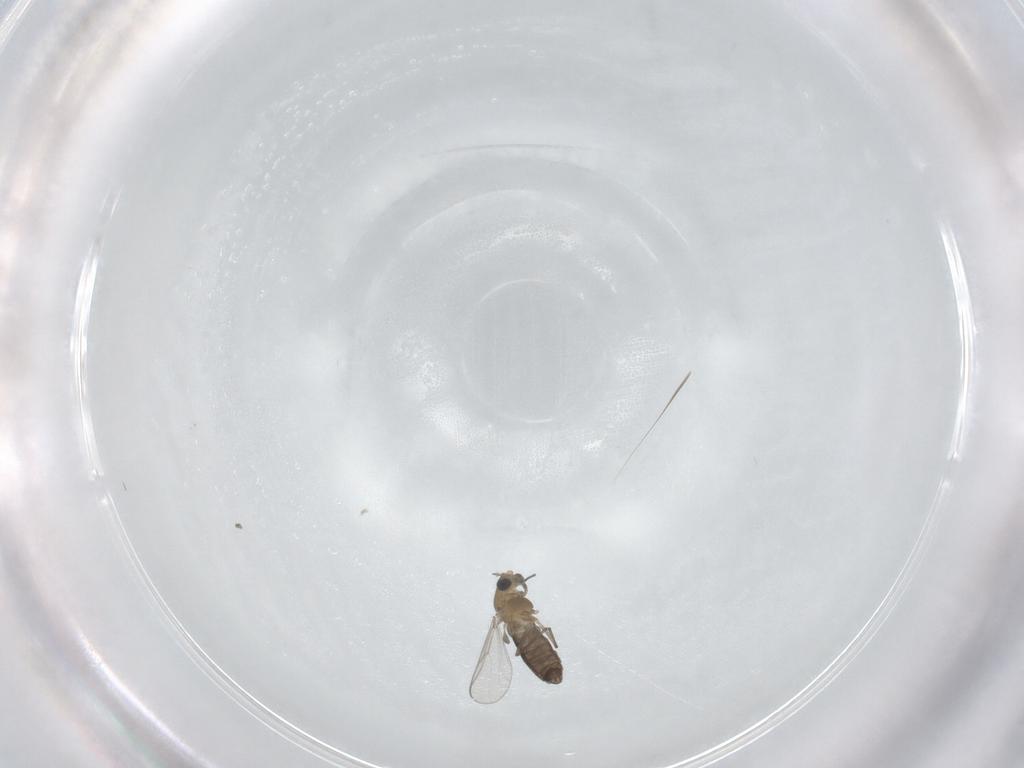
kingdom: Animalia
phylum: Arthropoda
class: Insecta
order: Diptera
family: Chironomidae
